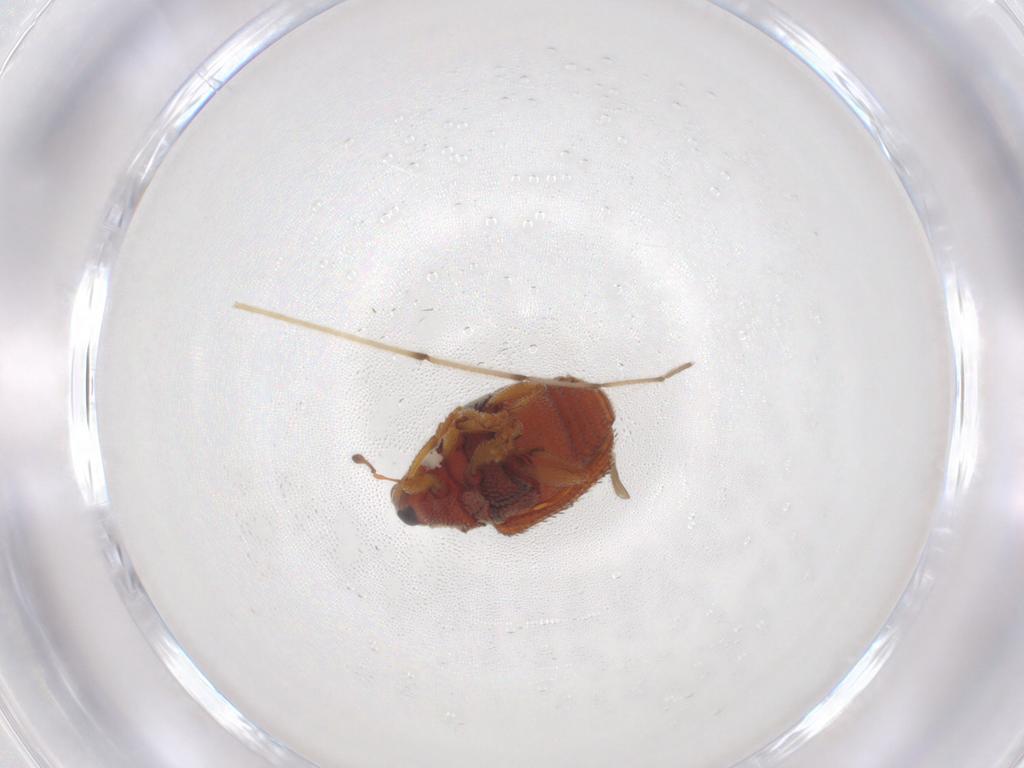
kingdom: Animalia
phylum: Arthropoda
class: Insecta
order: Coleoptera
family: Curculionidae
